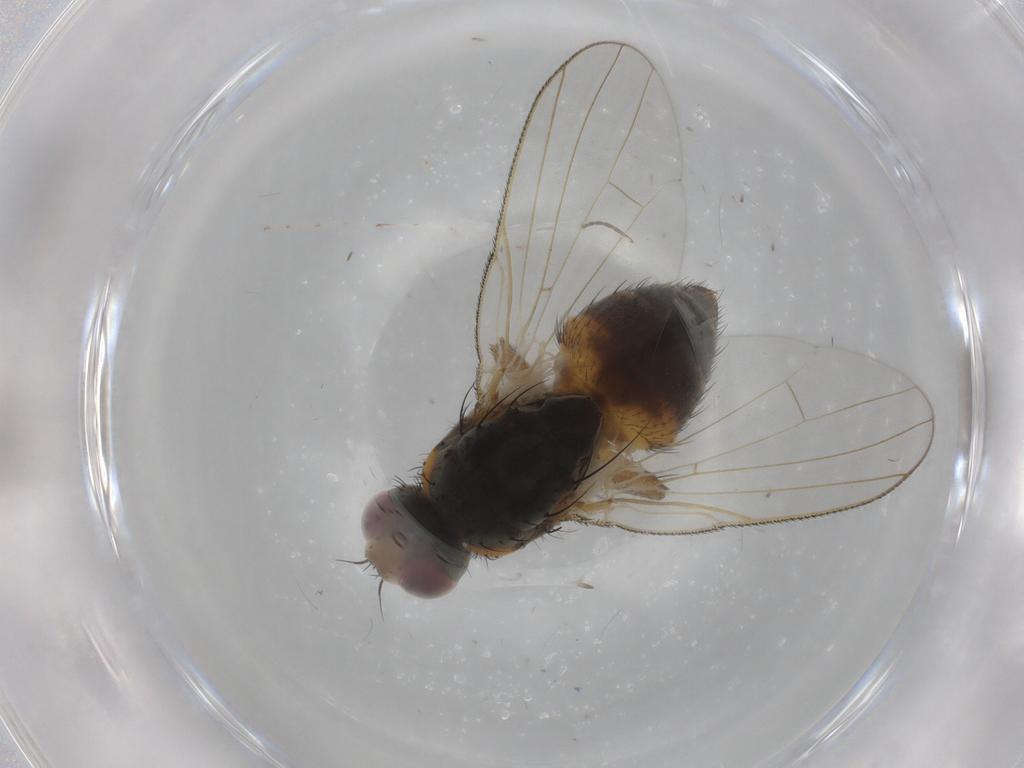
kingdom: Animalia
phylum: Arthropoda
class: Insecta
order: Diptera
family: Muscidae
